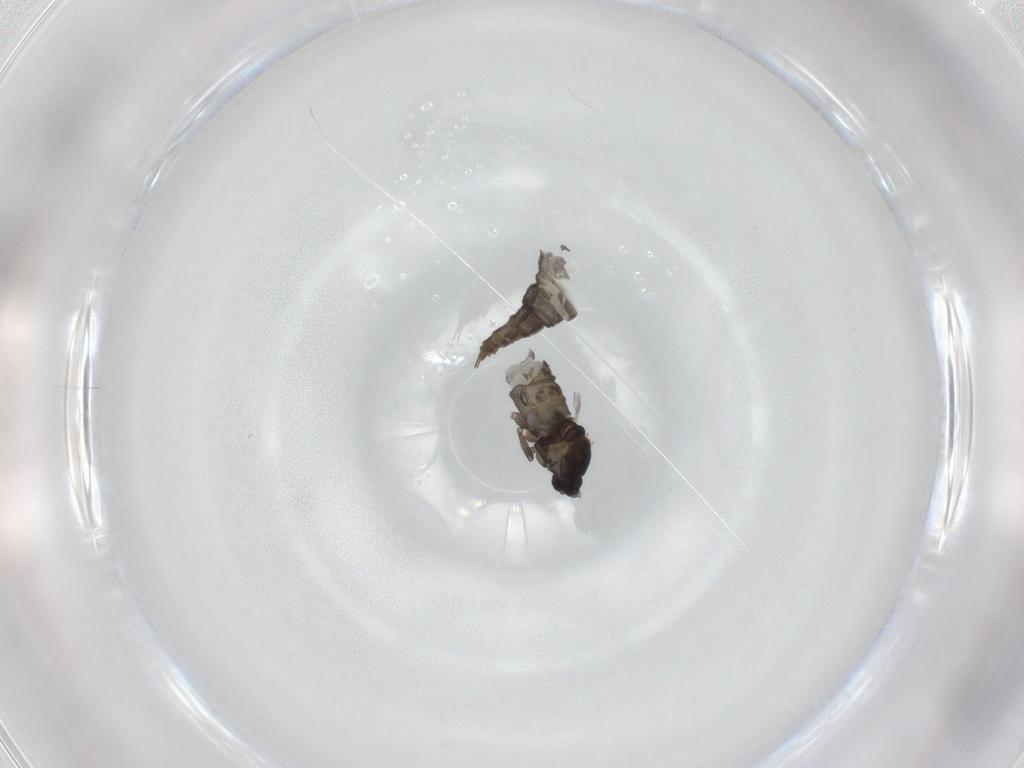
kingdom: Animalia
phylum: Arthropoda
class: Insecta
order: Diptera
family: Cecidomyiidae
